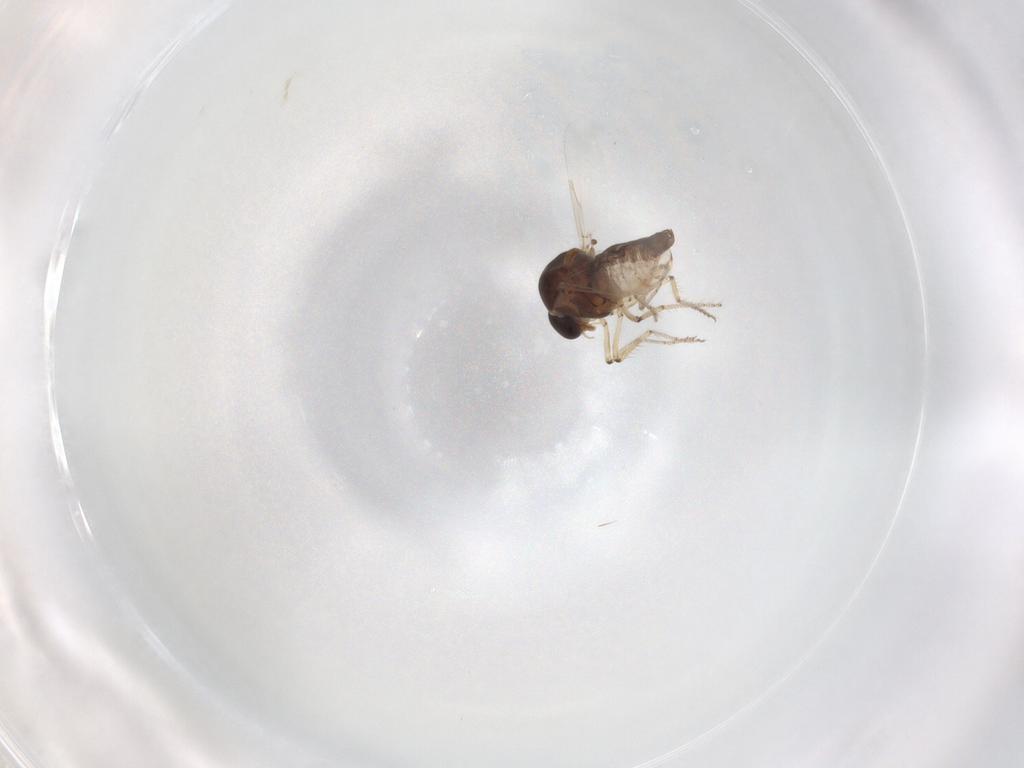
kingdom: Animalia
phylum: Arthropoda
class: Insecta
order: Diptera
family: Ceratopogonidae
